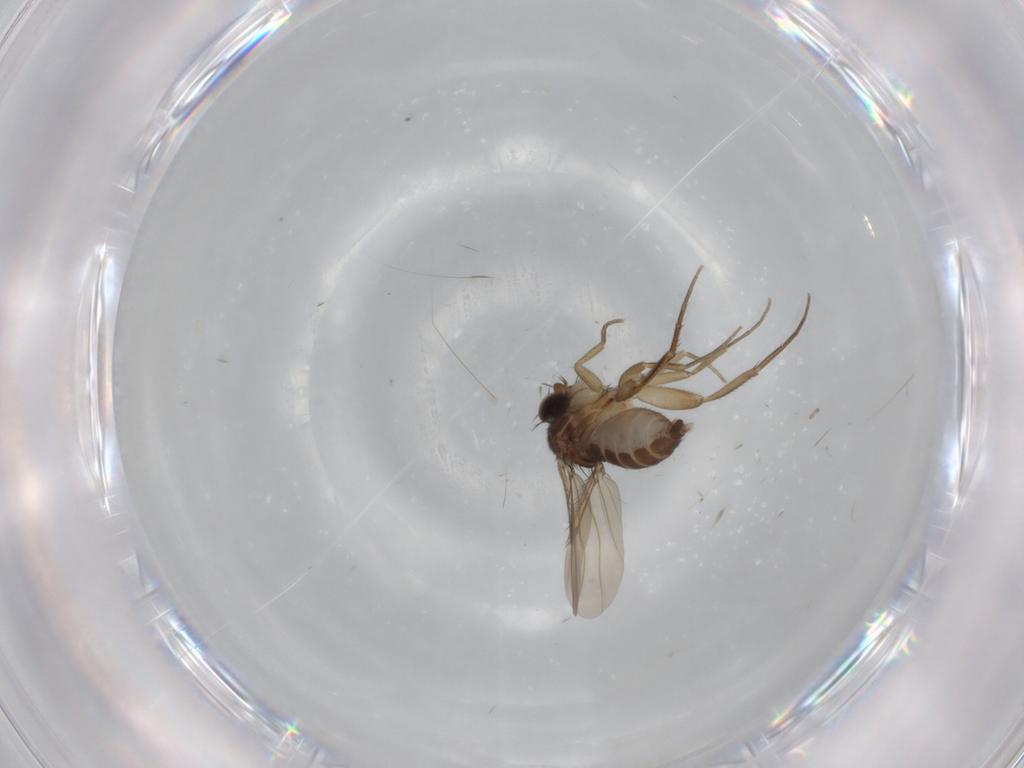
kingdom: Animalia
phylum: Arthropoda
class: Insecta
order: Diptera
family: Phoridae
